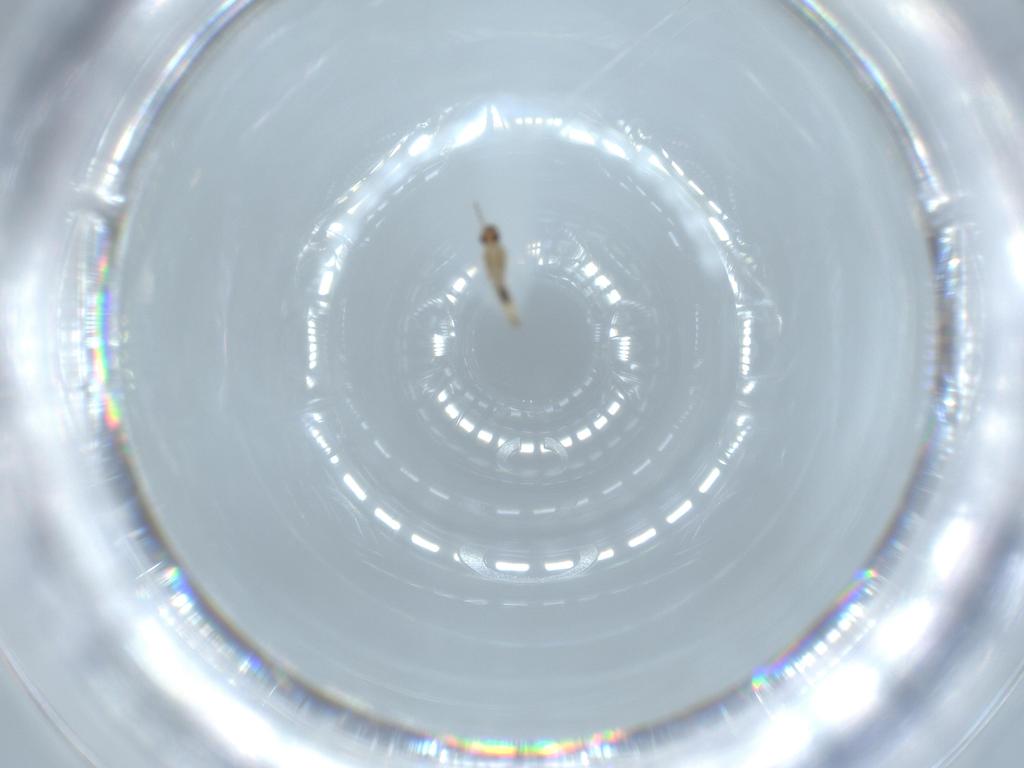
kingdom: Animalia
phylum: Arthropoda
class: Insecta
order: Diptera
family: Cecidomyiidae
